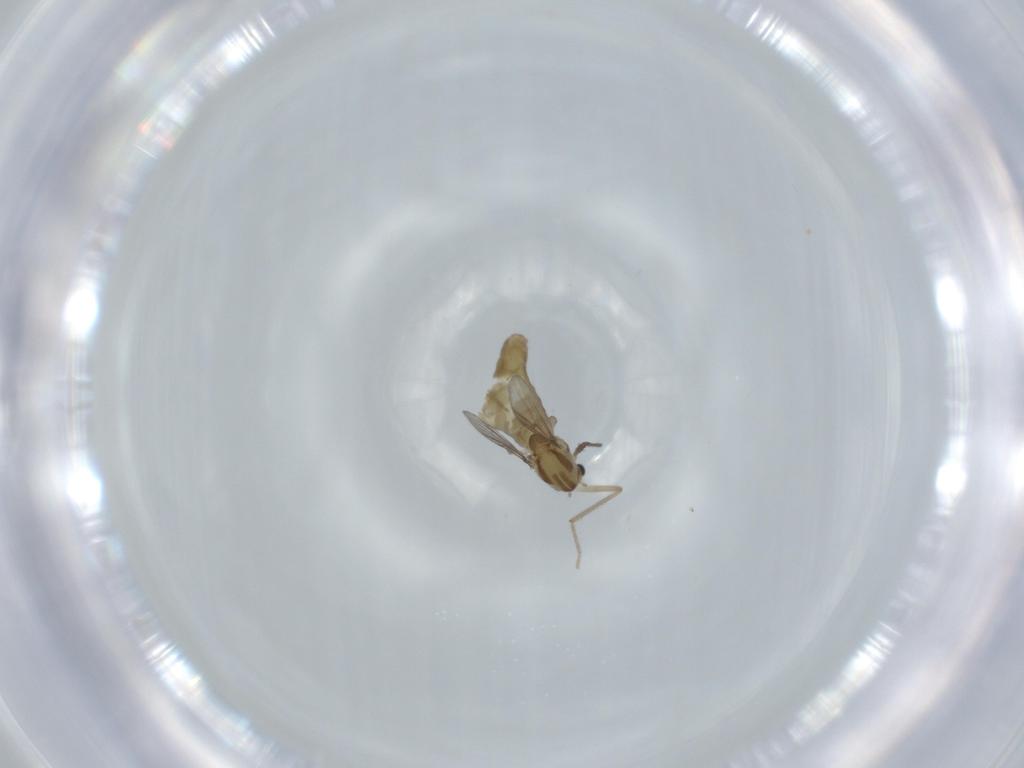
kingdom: Animalia
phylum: Arthropoda
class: Insecta
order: Diptera
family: Chironomidae
